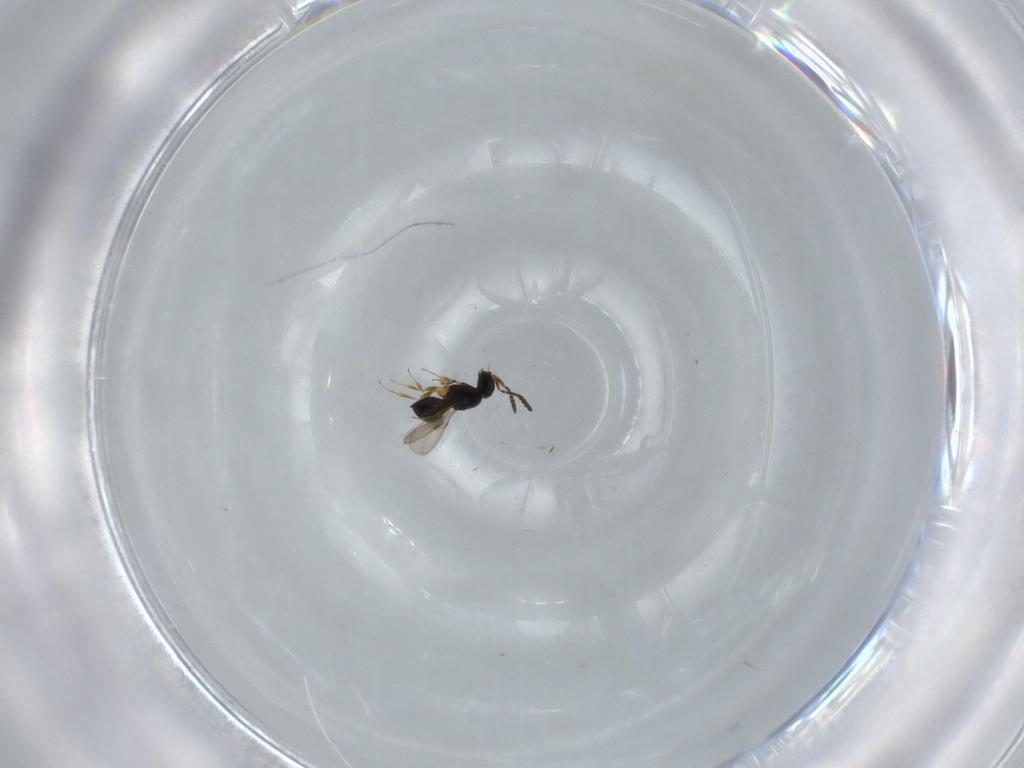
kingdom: Animalia
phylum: Arthropoda
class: Insecta
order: Hymenoptera
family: Scelionidae
